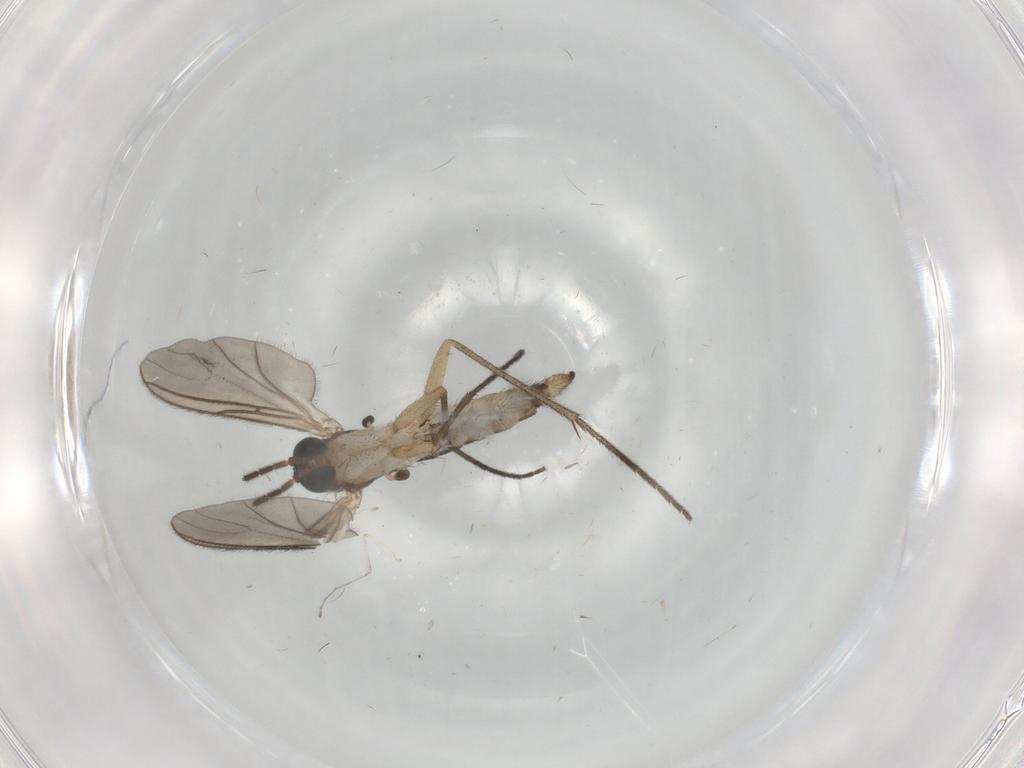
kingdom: Animalia
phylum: Arthropoda
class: Insecta
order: Diptera
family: Sciaridae
